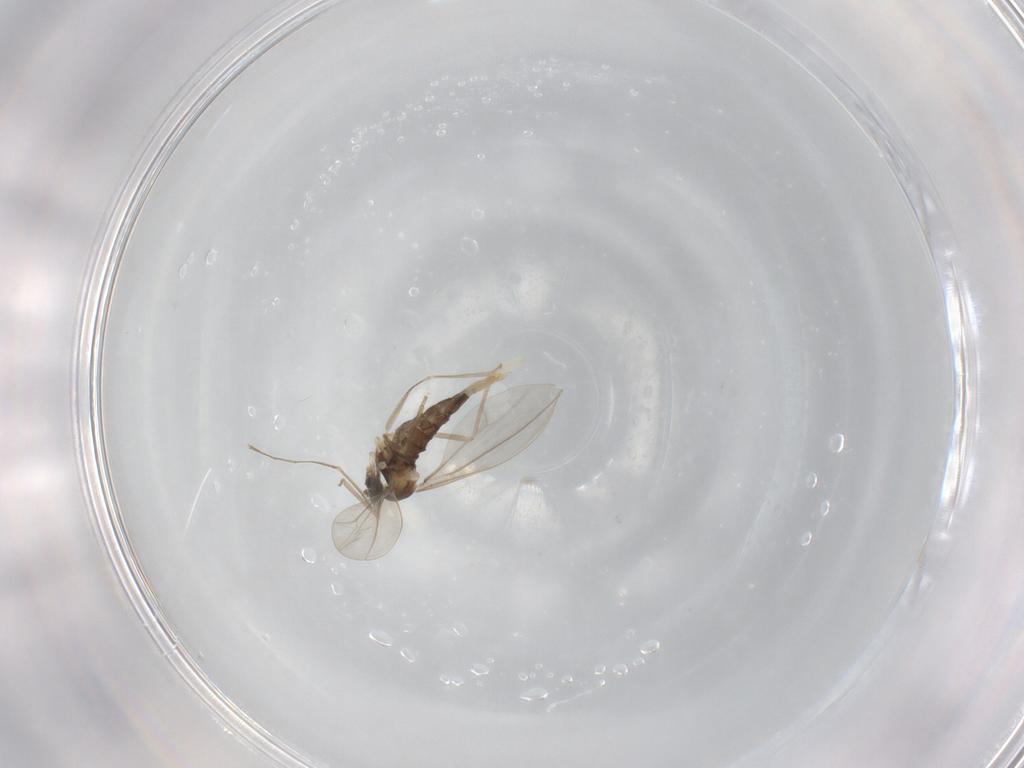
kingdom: Animalia
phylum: Arthropoda
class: Insecta
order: Diptera
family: Cecidomyiidae
